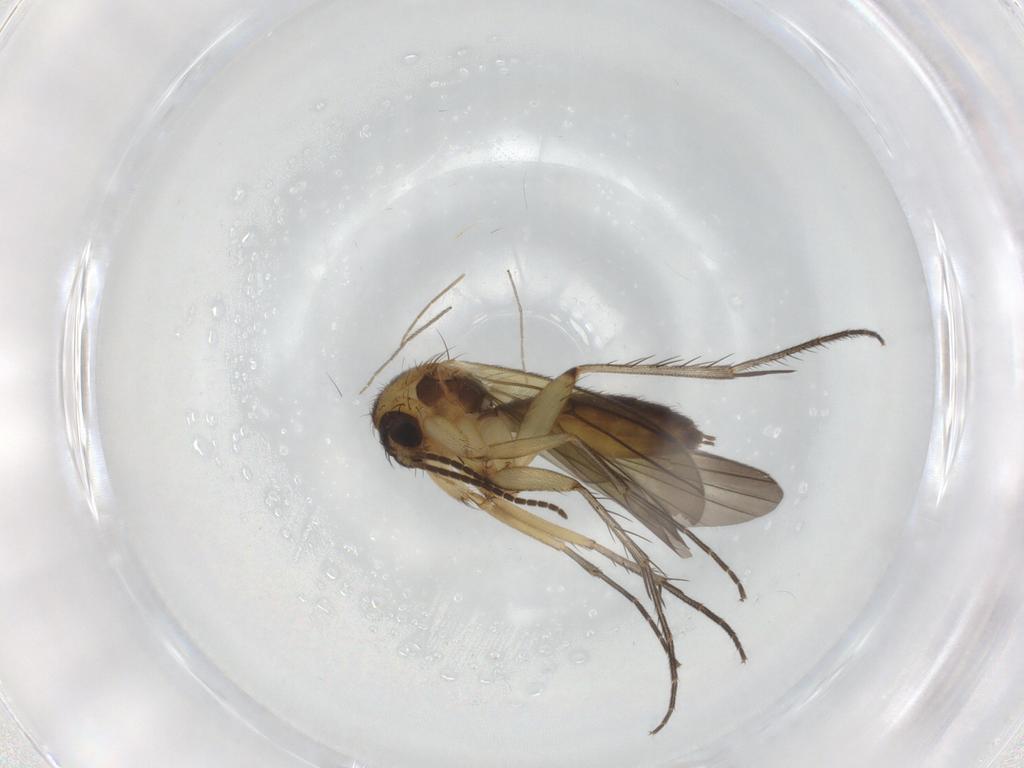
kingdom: Animalia
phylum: Arthropoda
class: Insecta
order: Diptera
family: Mycetophilidae
